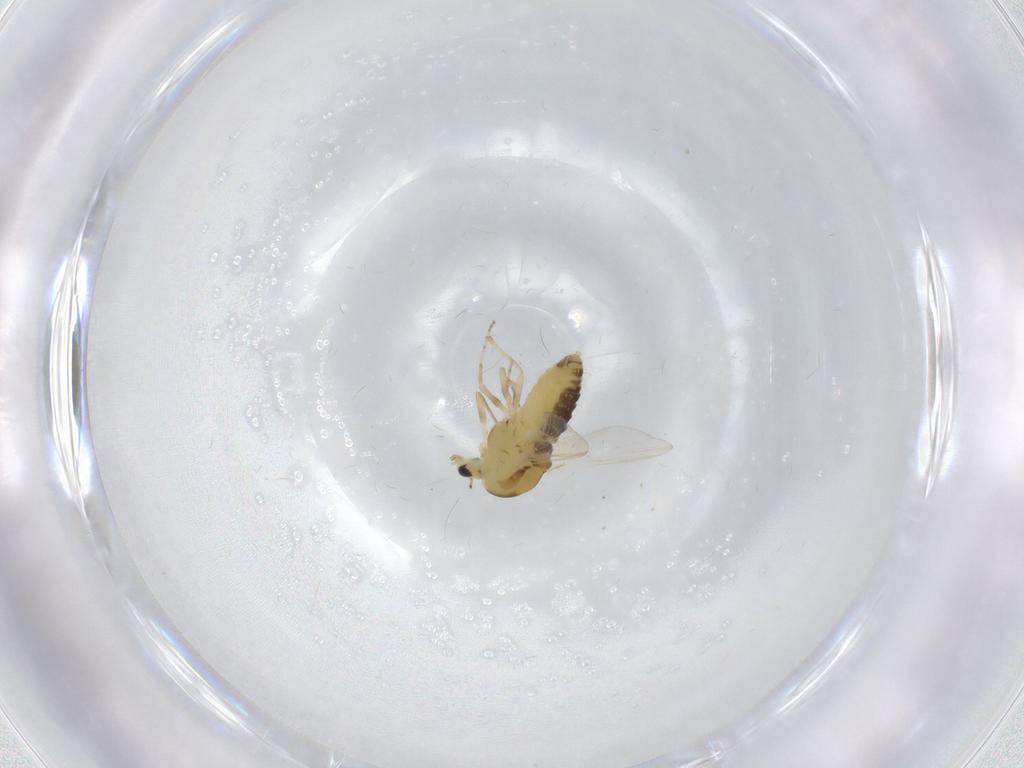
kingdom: Animalia
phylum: Arthropoda
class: Insecta
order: Diptera
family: Chironomidae
